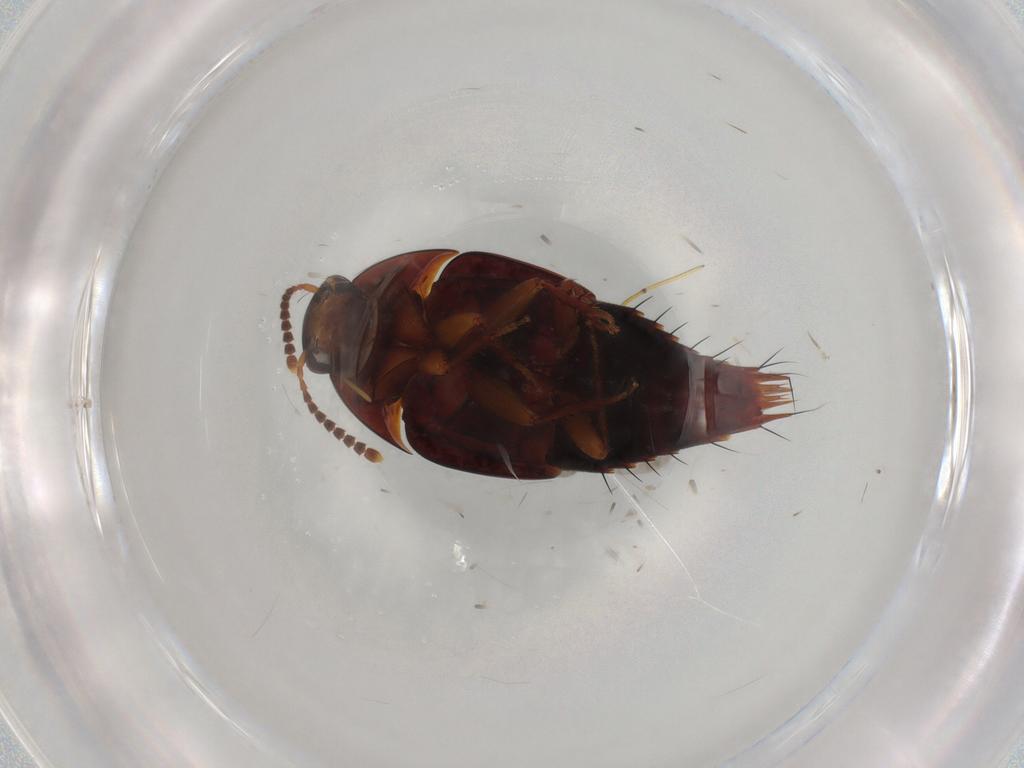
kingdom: Animalia
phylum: Arthropoda
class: Insecta
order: Coleoptera
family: Staphylinidae
